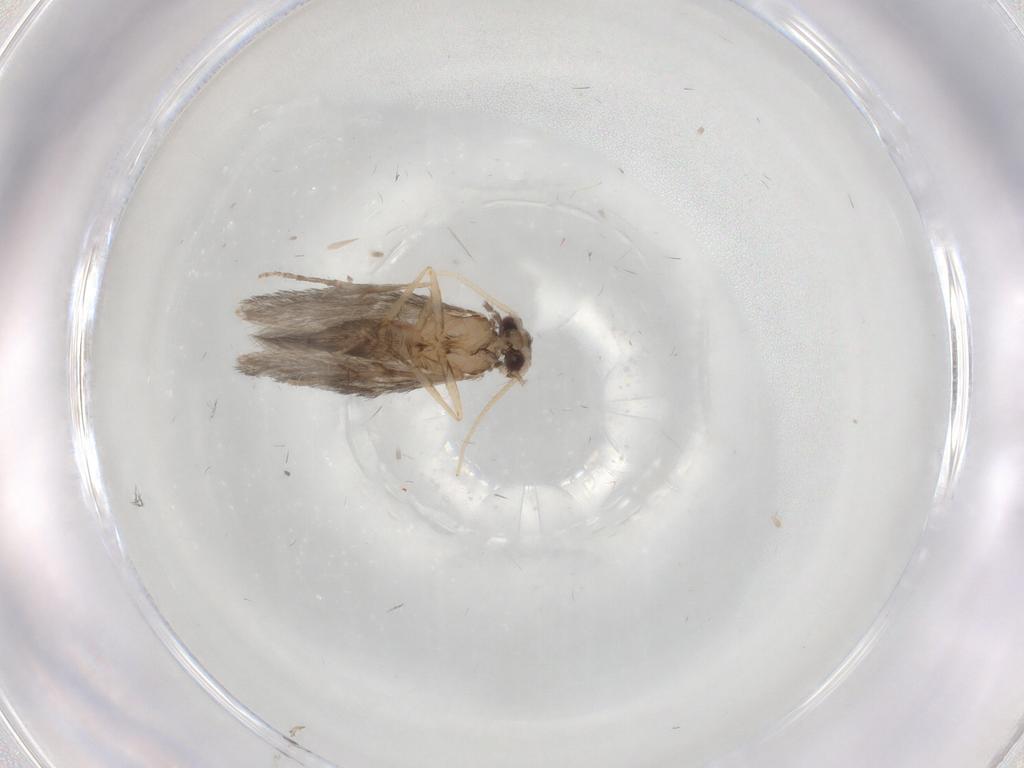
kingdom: Animalia
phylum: Arthropoda
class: Insecta
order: Trichoptera
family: Hydroptilidae
